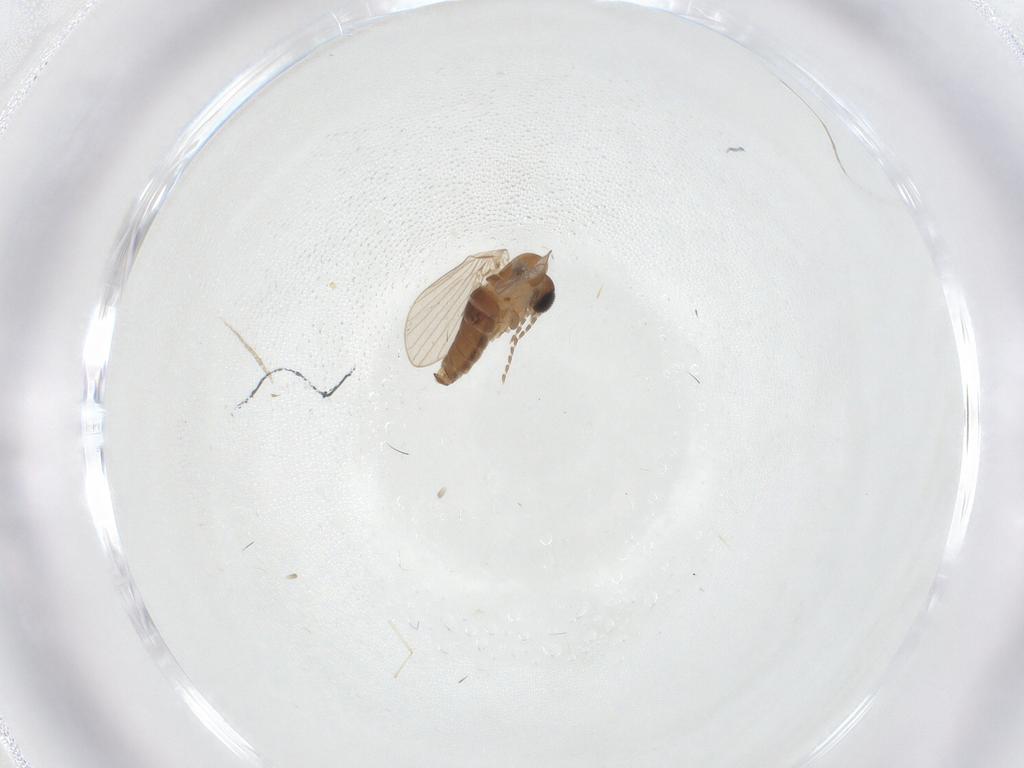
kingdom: Animalia
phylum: Arthropoda
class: Insecta
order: Diptera
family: Ceratopogonidae
